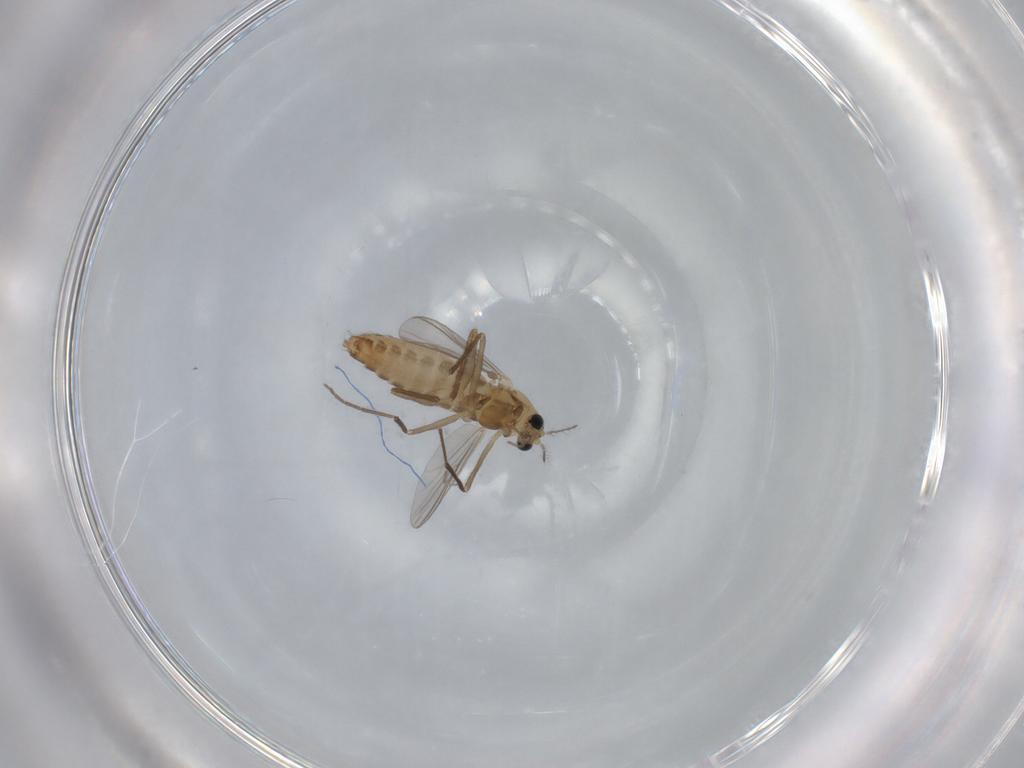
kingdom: Animalia
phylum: Arthropoda
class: Insecta
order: Diptera
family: Chironomidae
